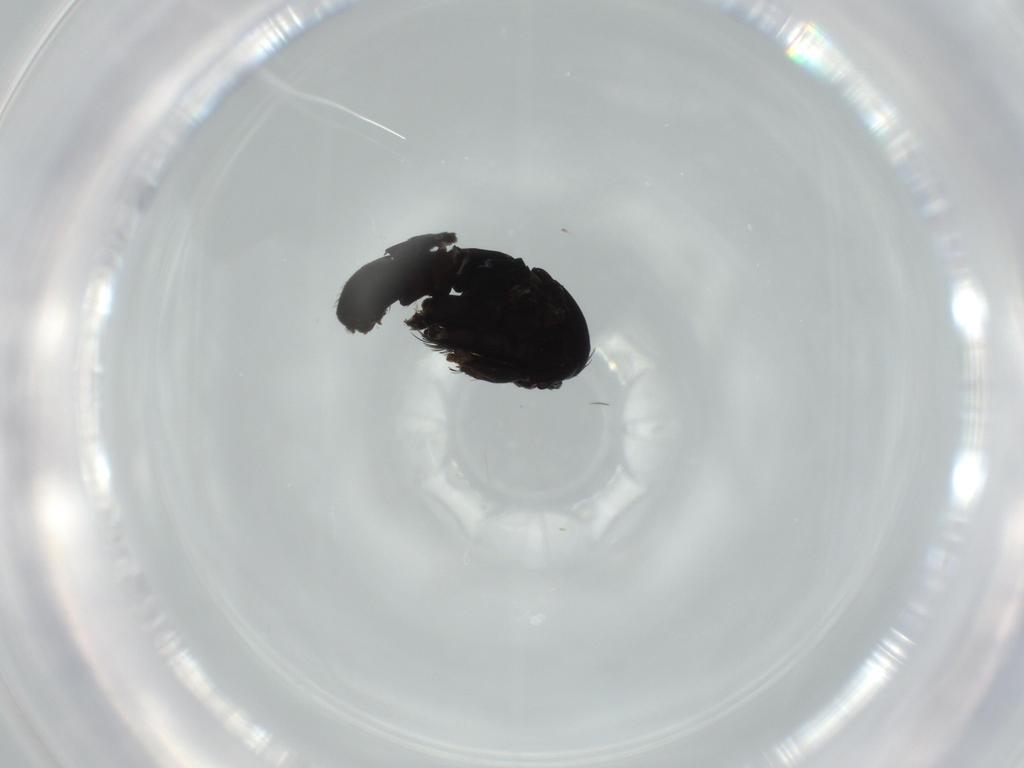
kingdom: Animalia
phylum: Arthropoda
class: Insecta
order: Diptera
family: Phoridae
